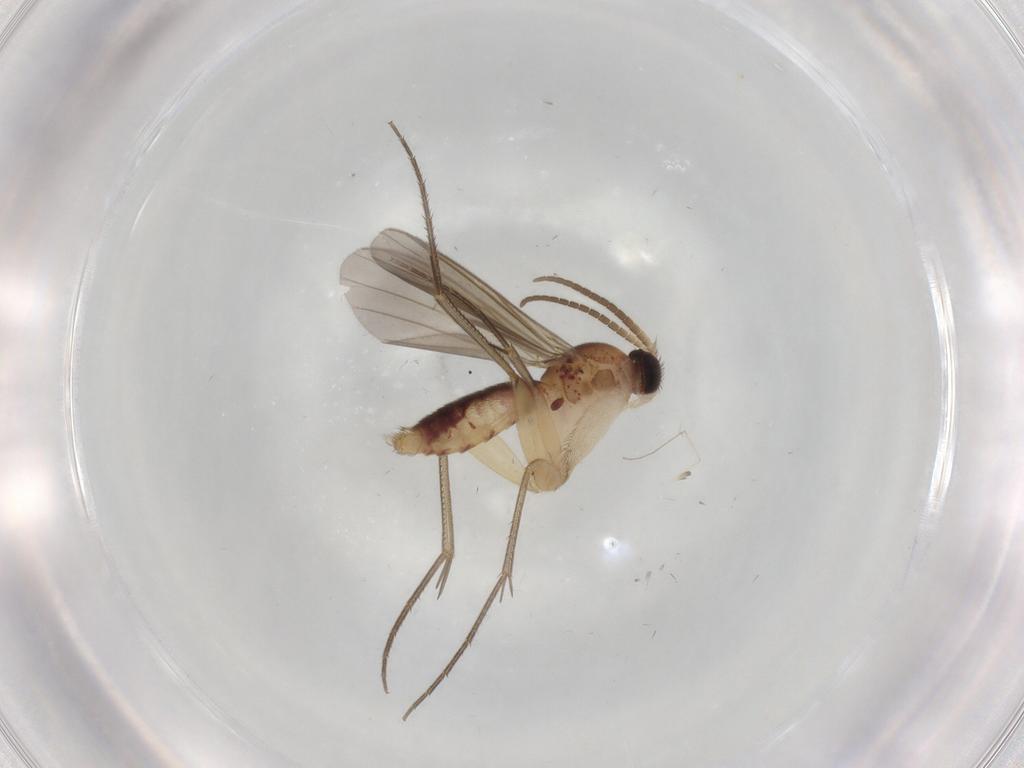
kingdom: Animalia
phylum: Arthropoda
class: Insecta
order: Diptera
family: Mycetophilidae
